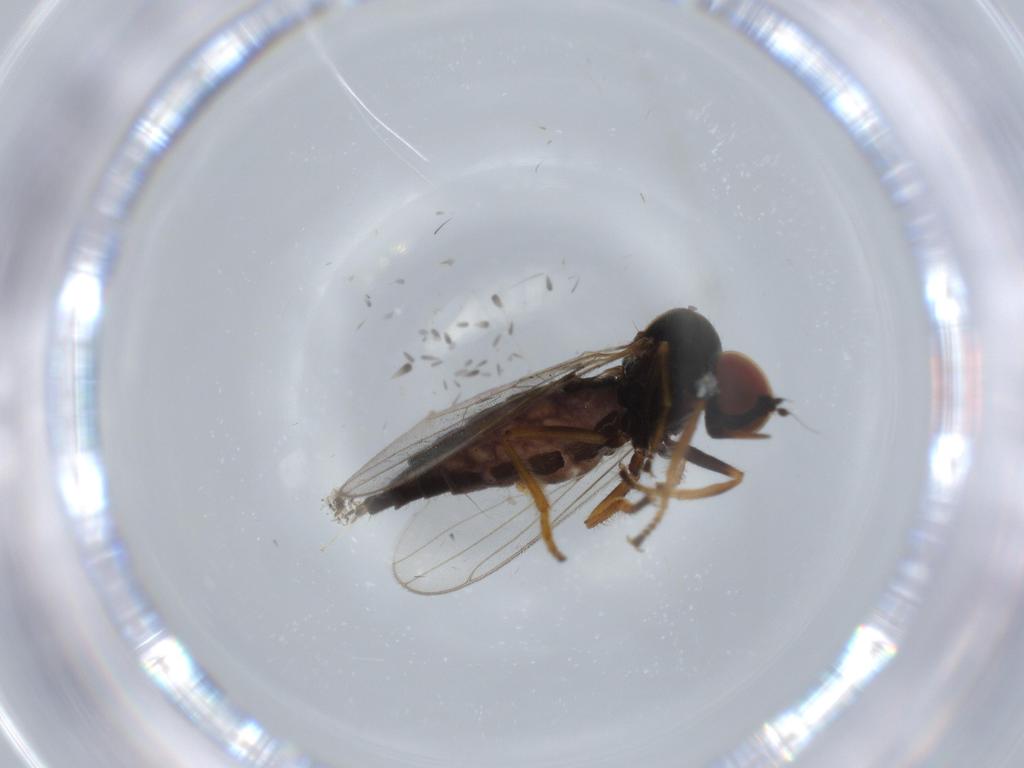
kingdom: Animalia
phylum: Arthropoda
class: Insecta
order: Diptera
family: Cecidomyiidae
